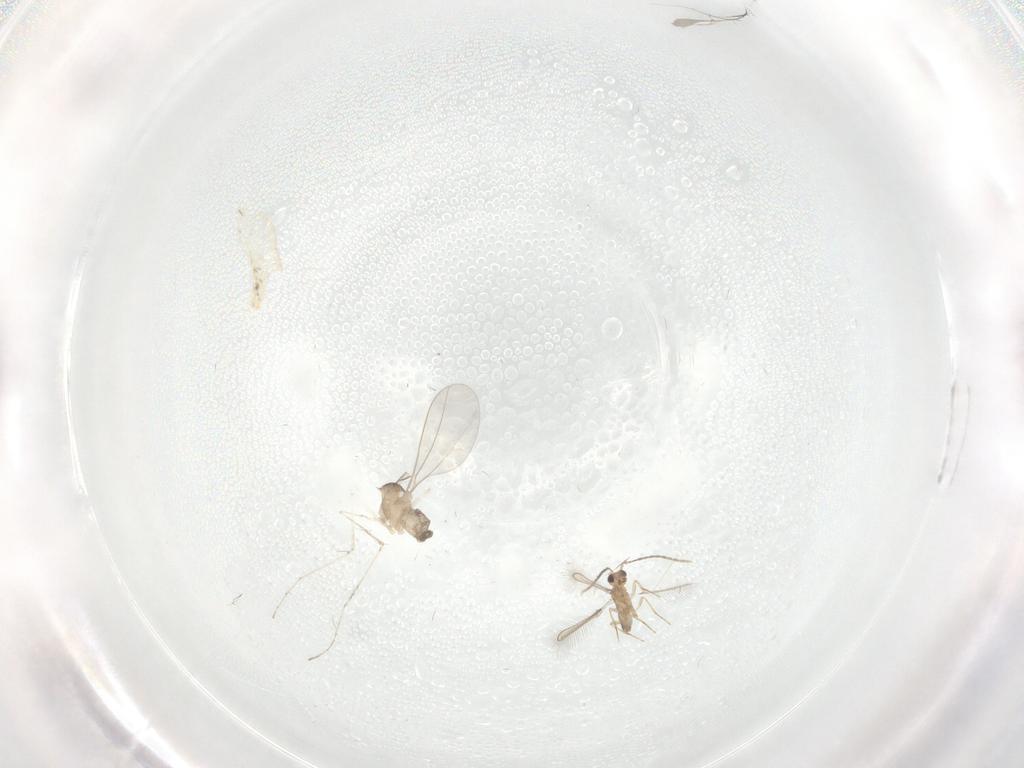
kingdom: Animalia
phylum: Arthropoda
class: Insecta
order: Diptera
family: Cecidomyiidae
